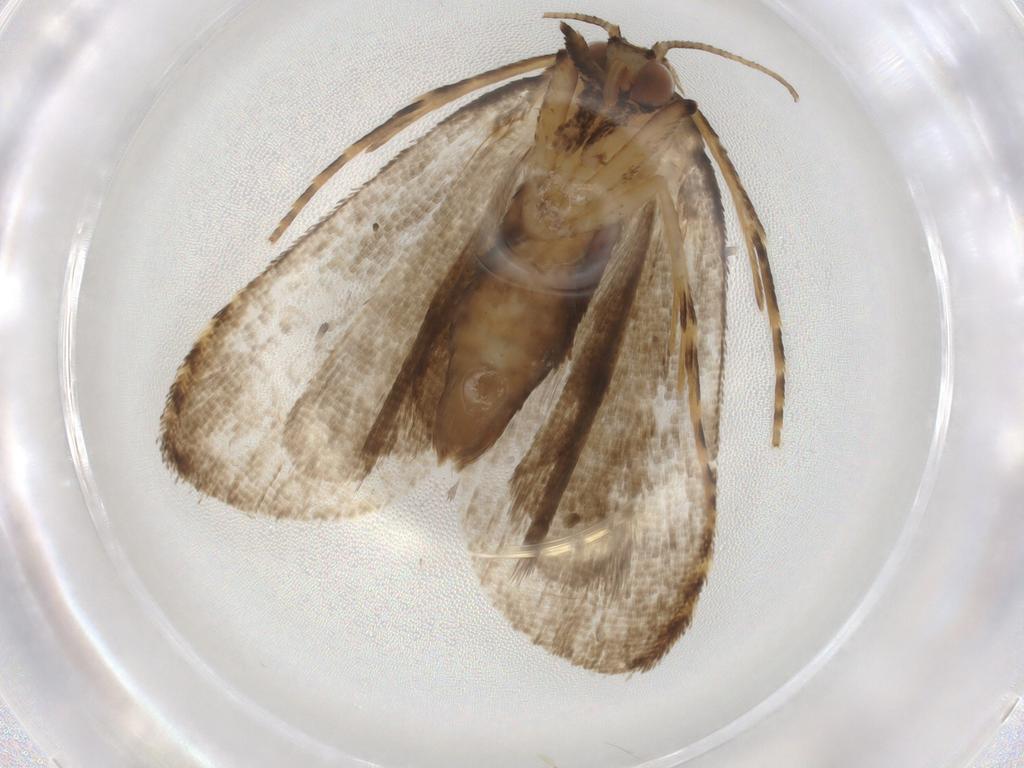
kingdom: Animalia
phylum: Arthropoda
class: Insecta
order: Lepidoptera
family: Erebidae
